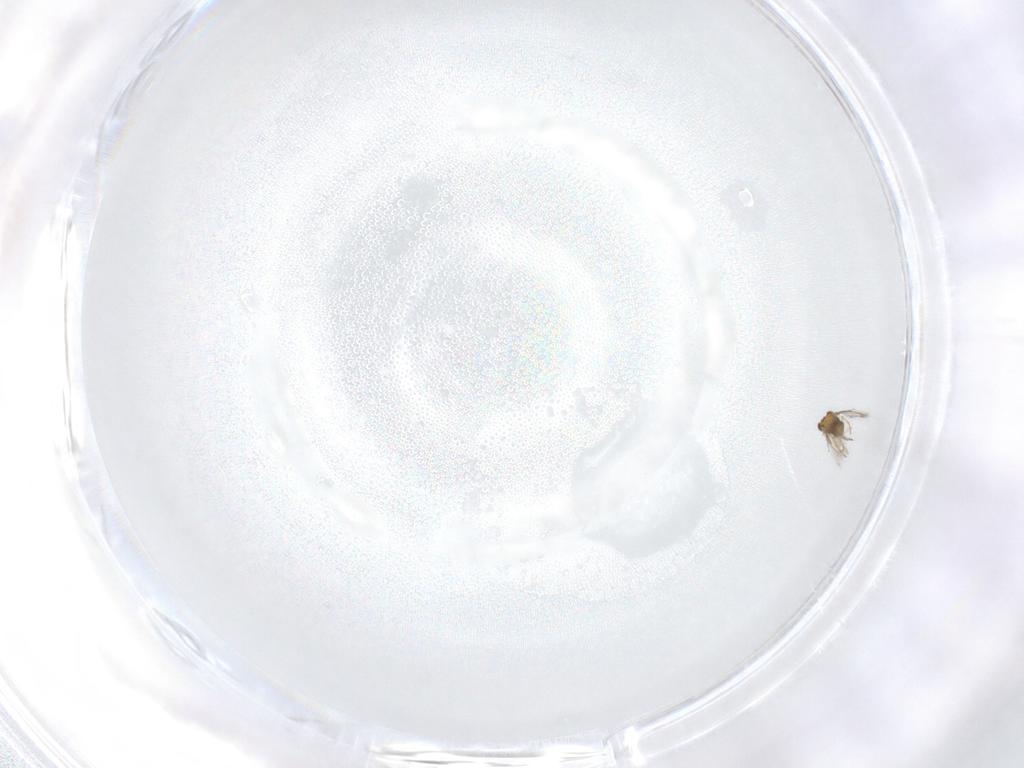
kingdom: Animalia
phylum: Arthropoda
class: Insecta
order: Hymenoptera
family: Aphelinidae
